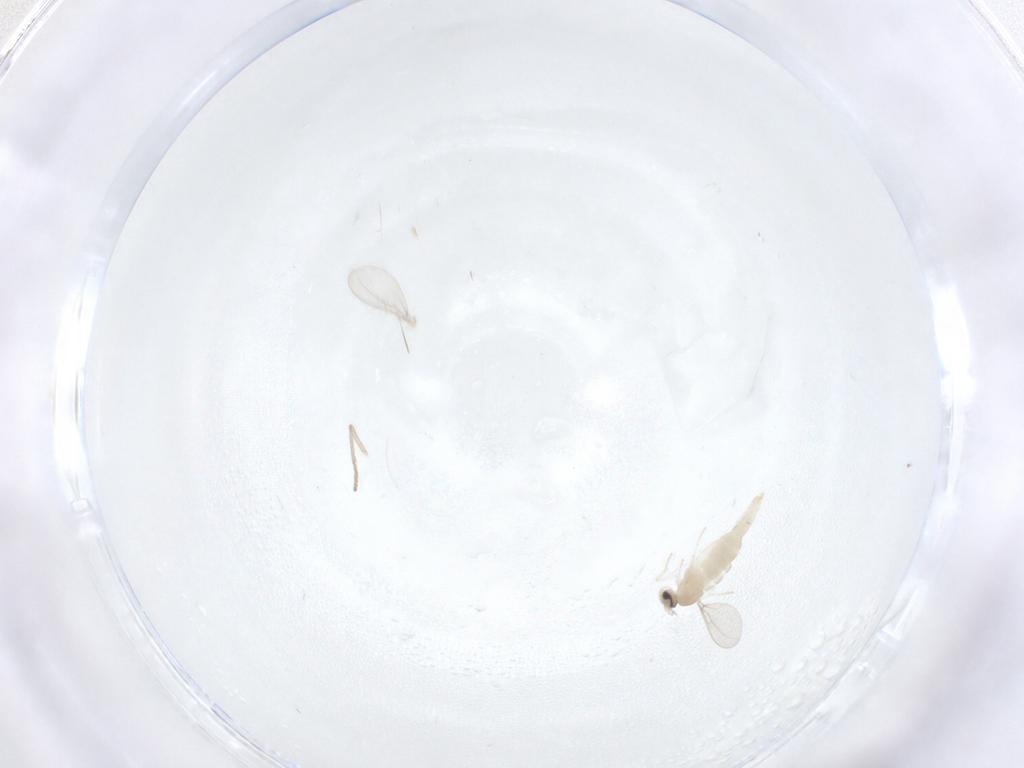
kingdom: Animalia
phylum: Arthropoda
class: Insecta
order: Diptera
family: Cecidomyiidae
